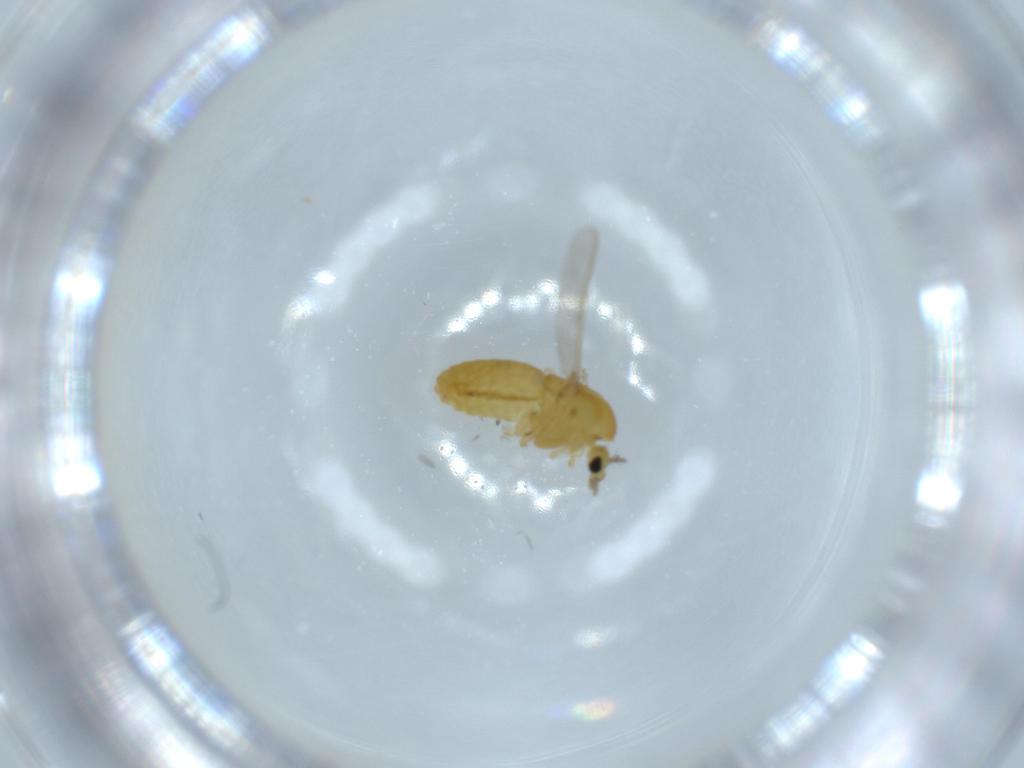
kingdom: Animalia
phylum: Arthropoda
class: Insecta
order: Diptera
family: Chironomidae
